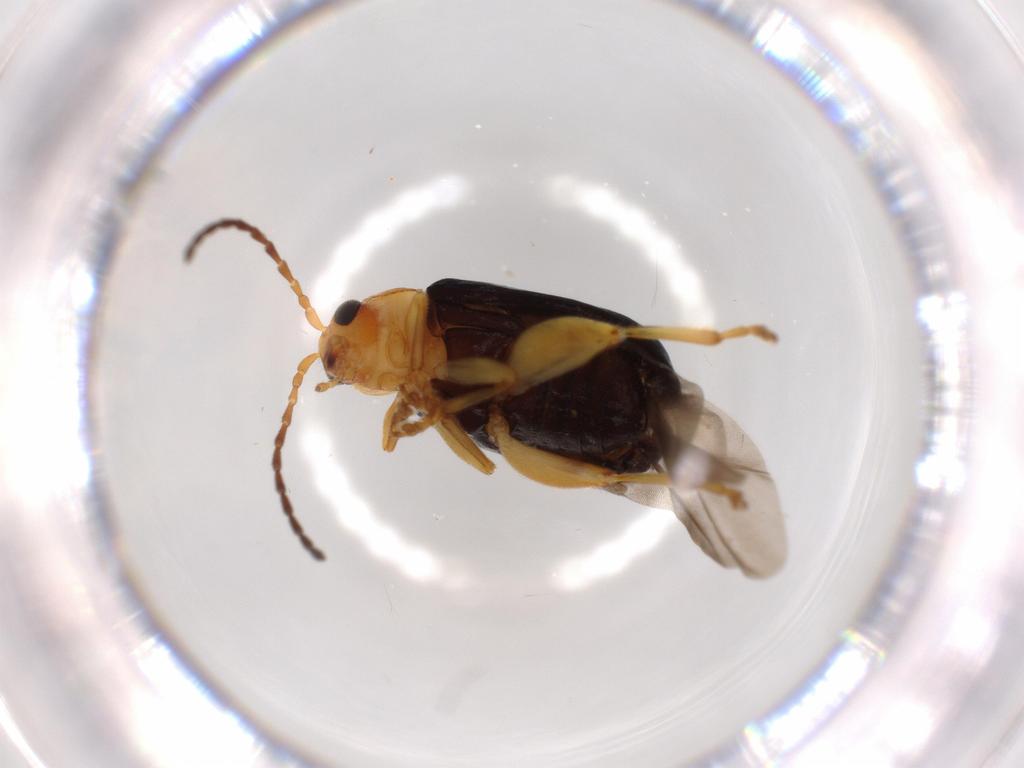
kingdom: Animalia
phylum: Arthropoda
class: Insecta
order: Coleoptera
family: Chrysomelidae
